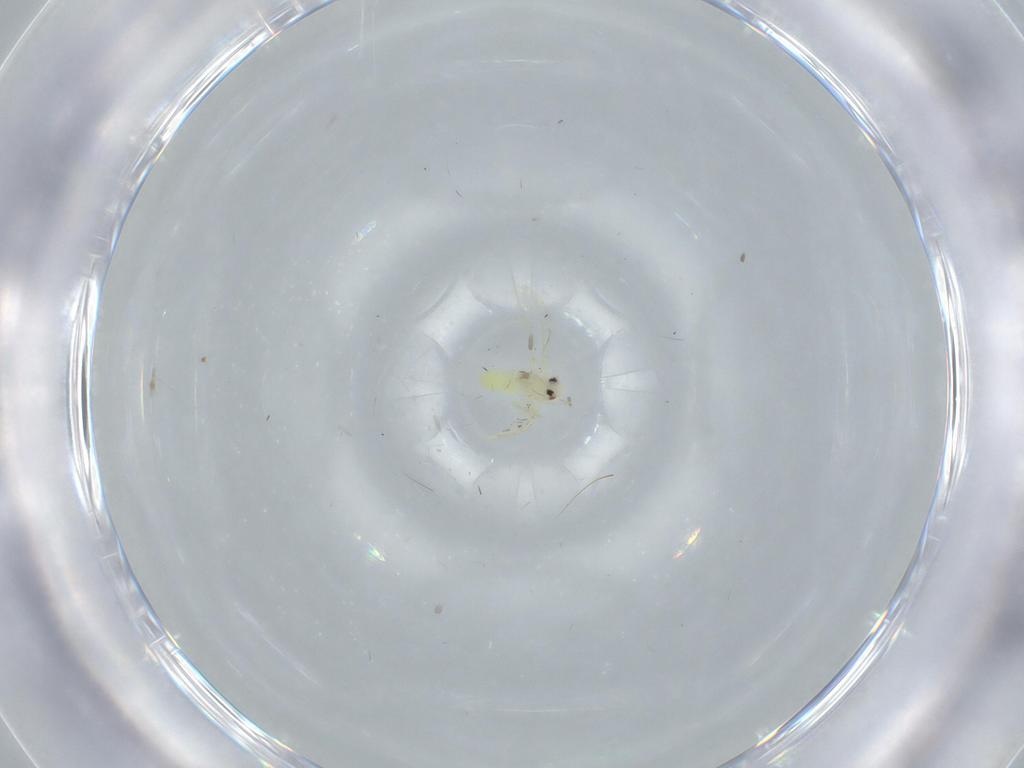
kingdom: Animalia
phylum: Arthropoda
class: Insecta
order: Hemiptera
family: Aleyrodidae
